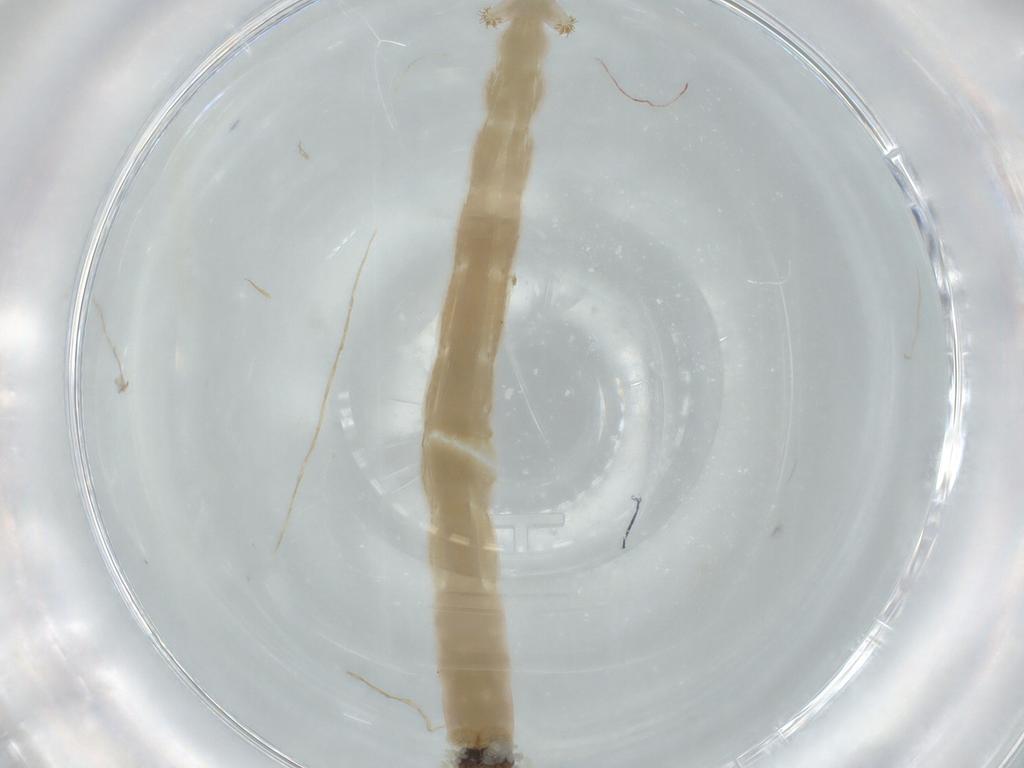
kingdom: Animalia
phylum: Arthropoda
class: Insecta
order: Diptera
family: Chironomidae
